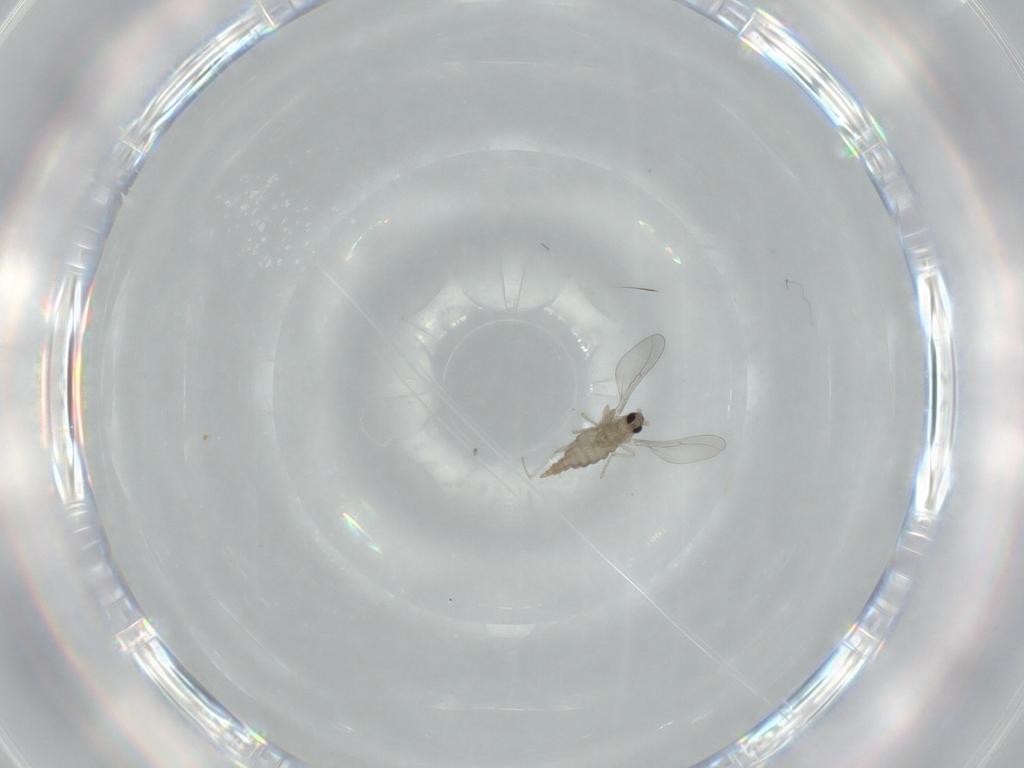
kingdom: Animalia
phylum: Arthropoda
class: Insecta
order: Diptera
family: Cecidomyiidae
